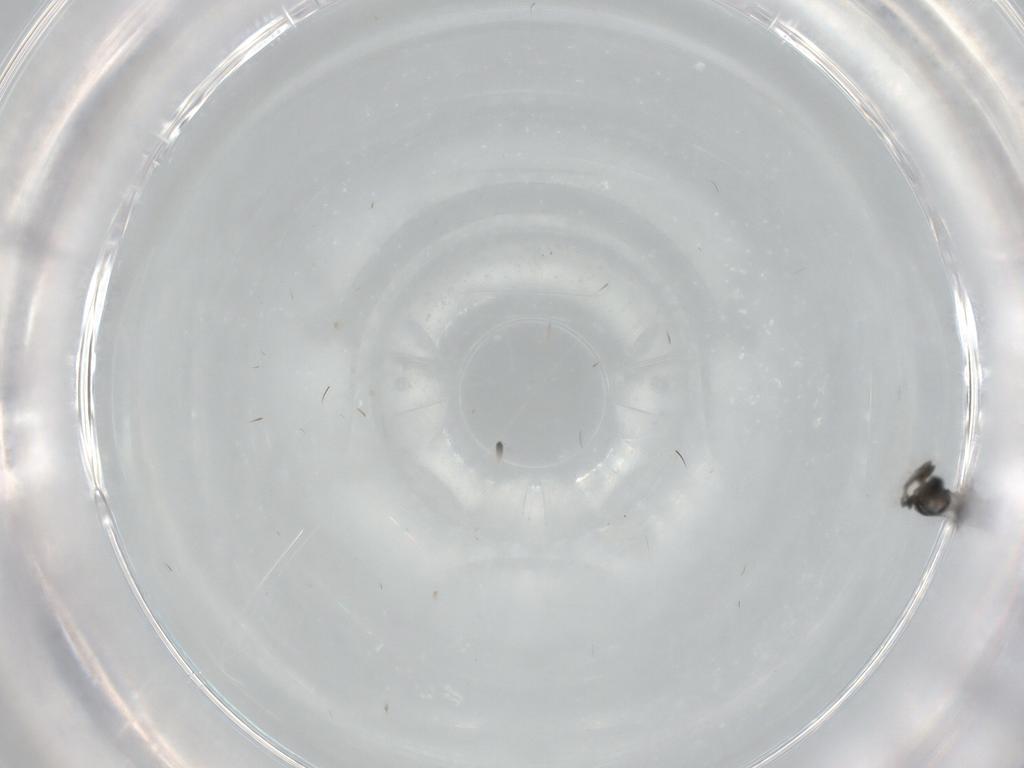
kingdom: Animalia
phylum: Arthropoda
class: Insecta
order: Hymenoptera
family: Scelionidae
